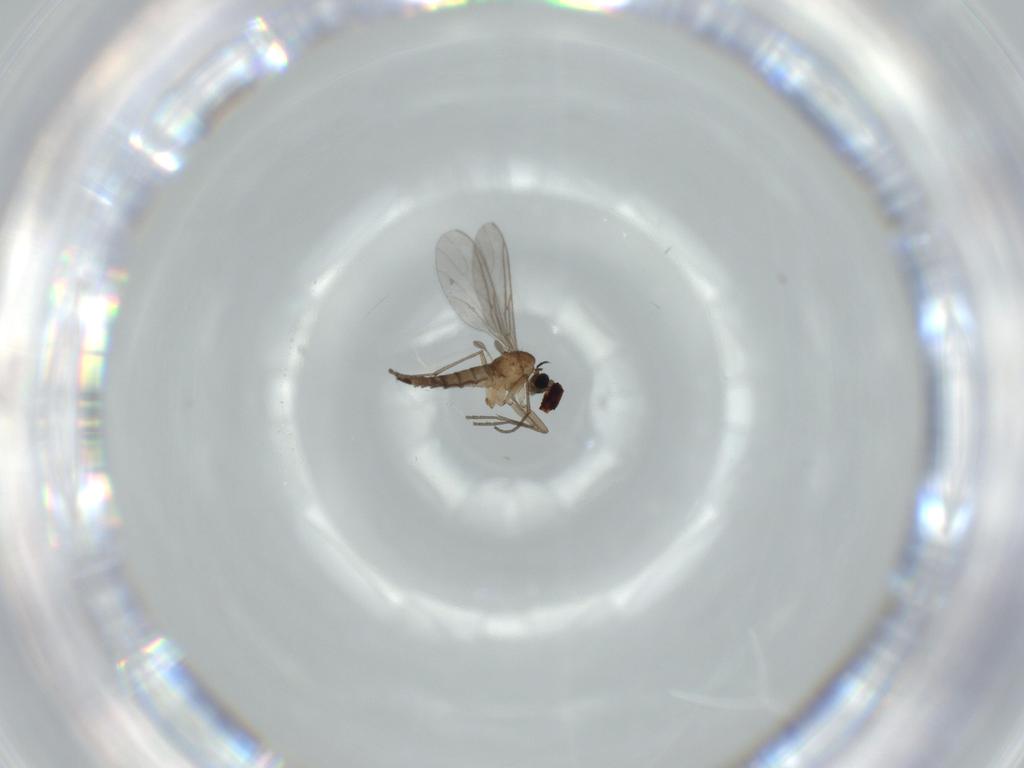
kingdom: Animalia
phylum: Arthropoda
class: Insecta
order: Diptera
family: Sciaridae
